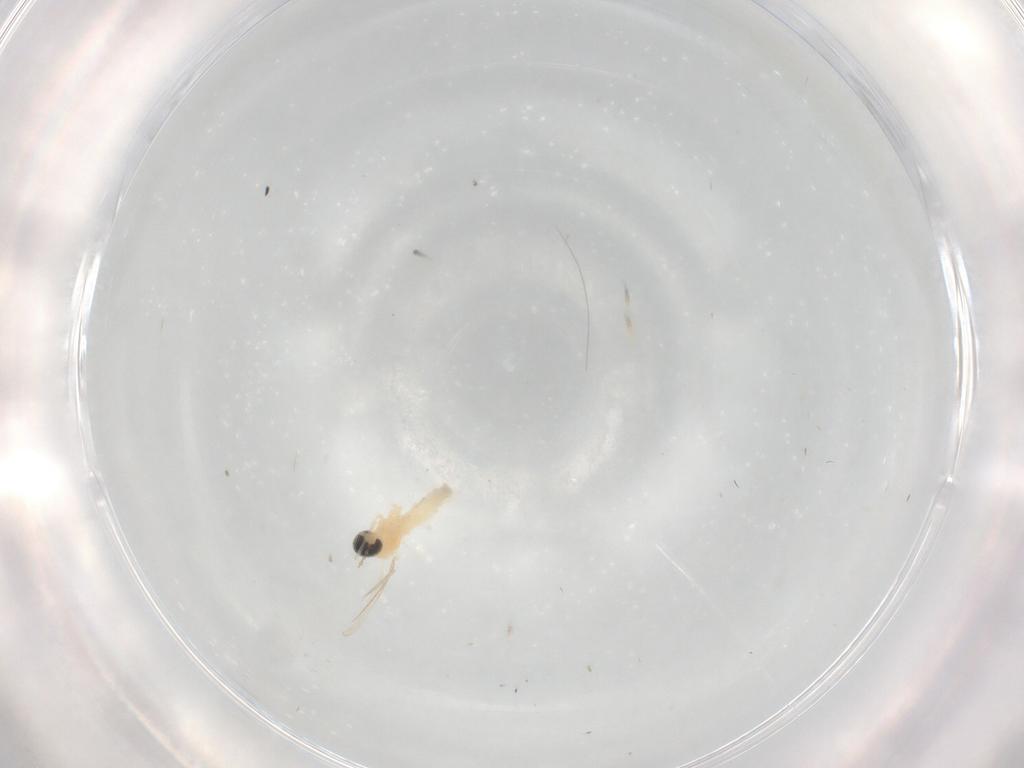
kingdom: Animalia
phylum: Arthropoda
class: Insecta
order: Diptera
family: Cecidomyiidae
